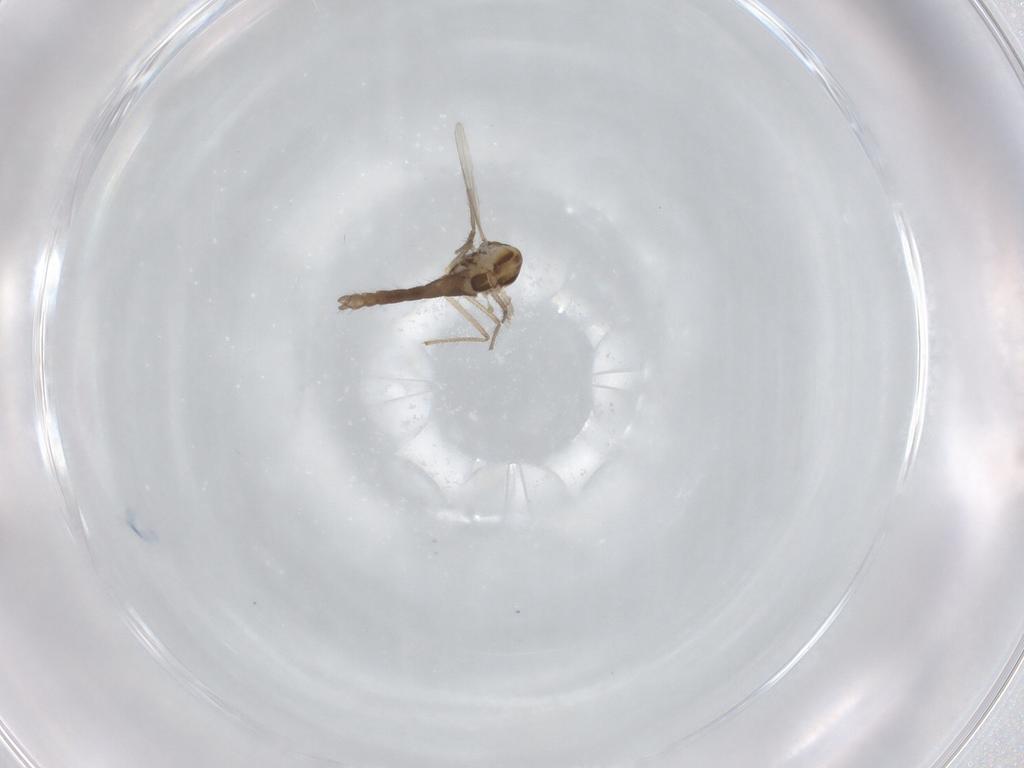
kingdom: Animalia
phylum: Arthropoda
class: Insecta
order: Diptera
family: Chironomidae
